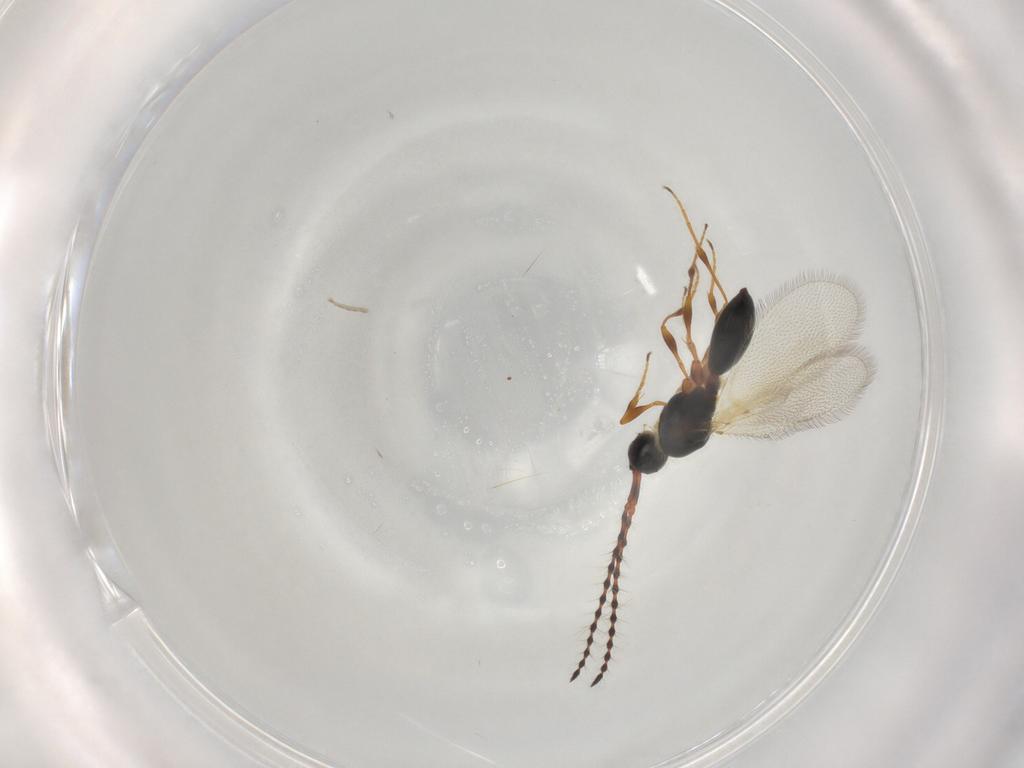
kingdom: Animalia
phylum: Arthropoda
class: Insecta
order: Hymenoptera
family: Diapriidae
